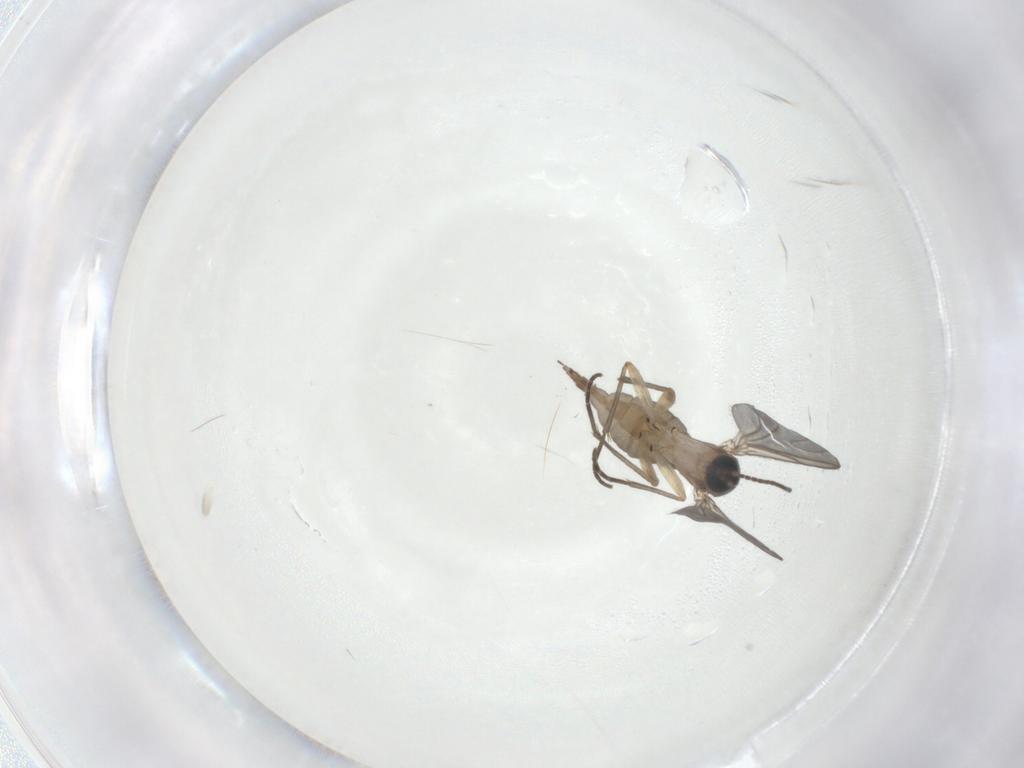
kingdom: Animalia
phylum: Arthropoda
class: Insecta
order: Diptera
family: Sciaridae
